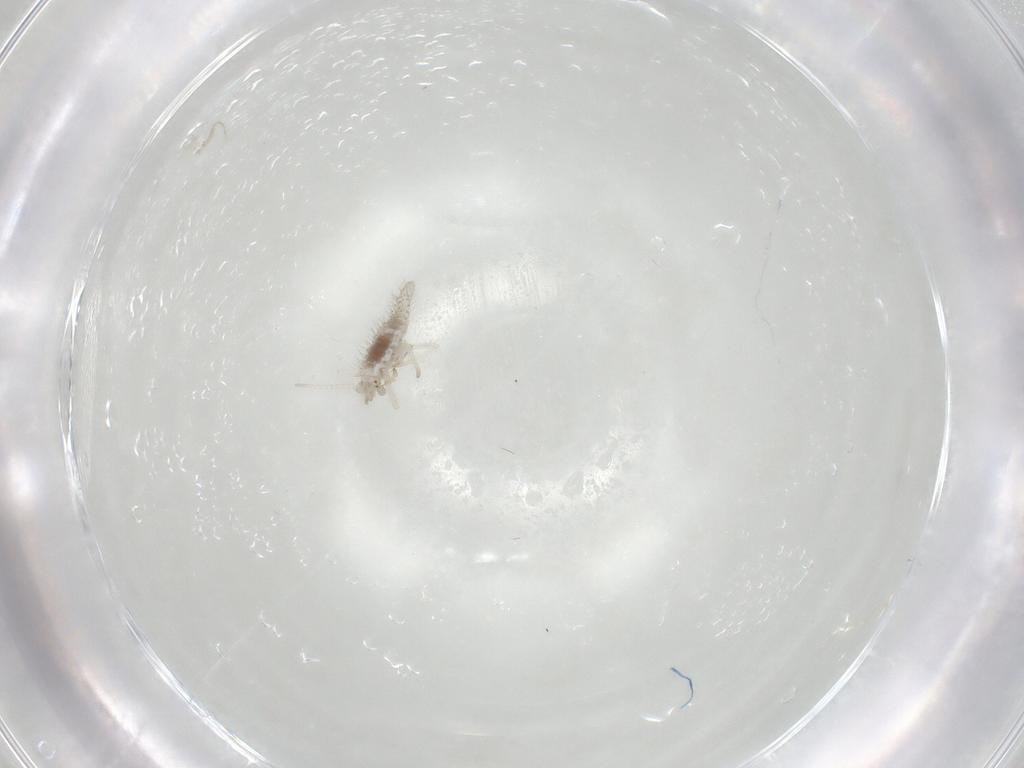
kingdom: Animalia
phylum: Arthropoda
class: Insecta
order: Neuroptera
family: Coniopterygidae
